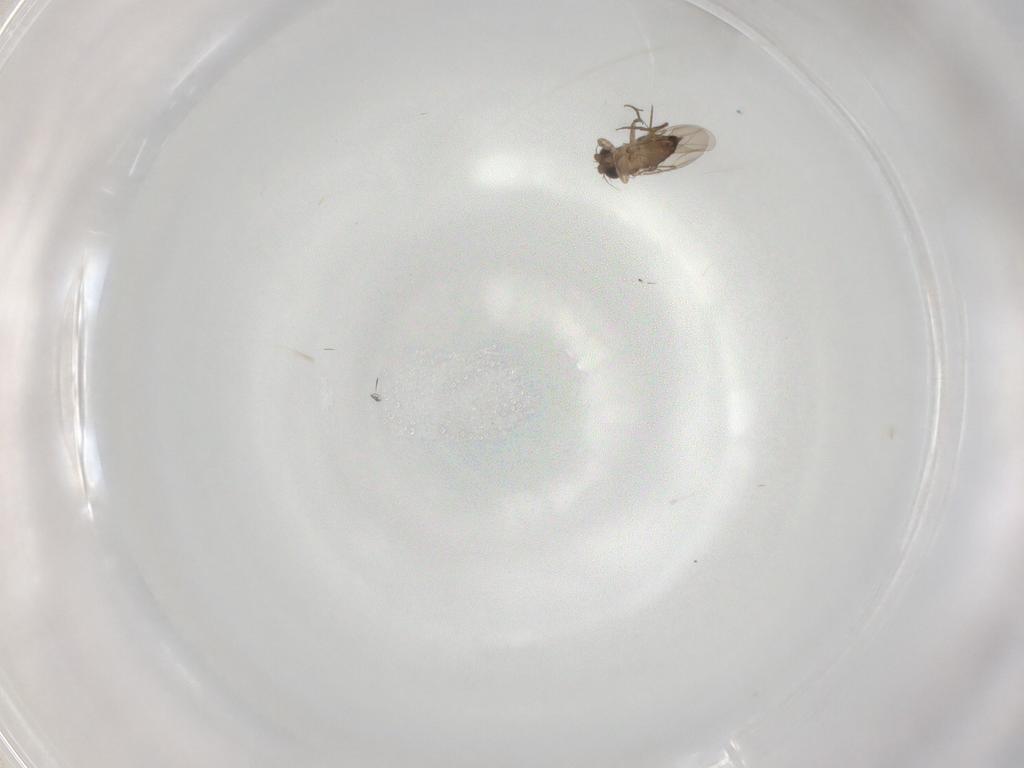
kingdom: Animalia
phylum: Arthropoda
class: Insecta
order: Diptera
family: Phoridae
